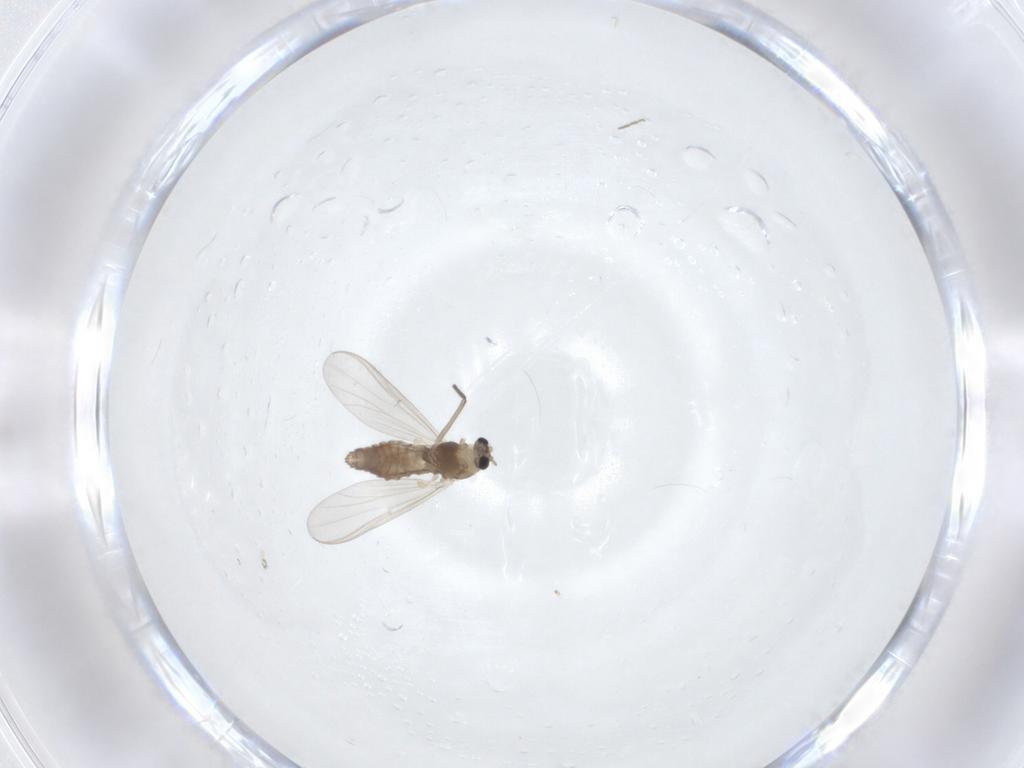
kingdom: Animalia
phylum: Arthropoda
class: Insecta
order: Diptera
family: Chironomidae
